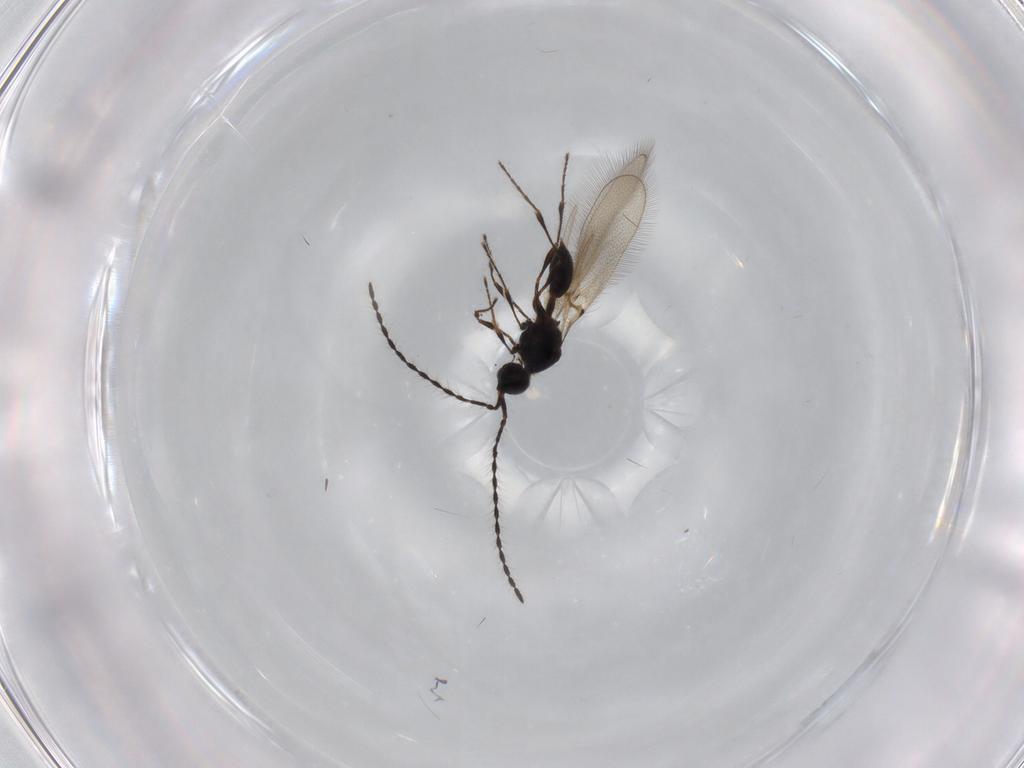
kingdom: Animalia
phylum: Arthropoda
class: Insecta
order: Hymenoptera
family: Diapriidae
